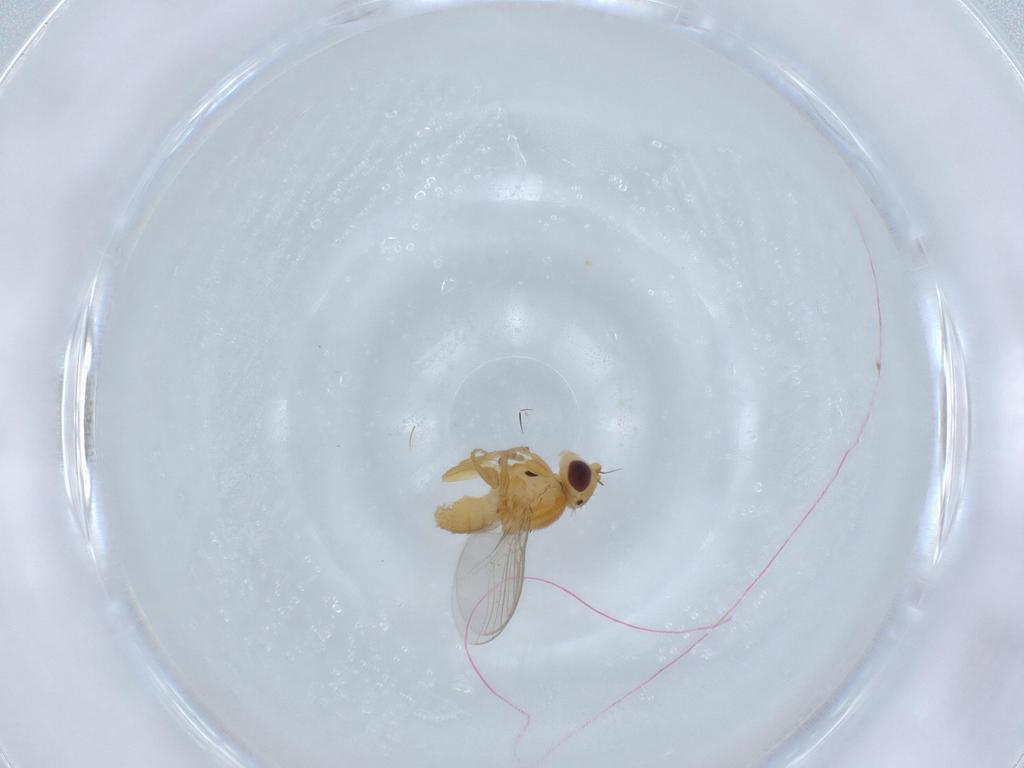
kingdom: Animalia
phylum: Arthropoda
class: Insecta
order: Diptera
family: Chloropidae
